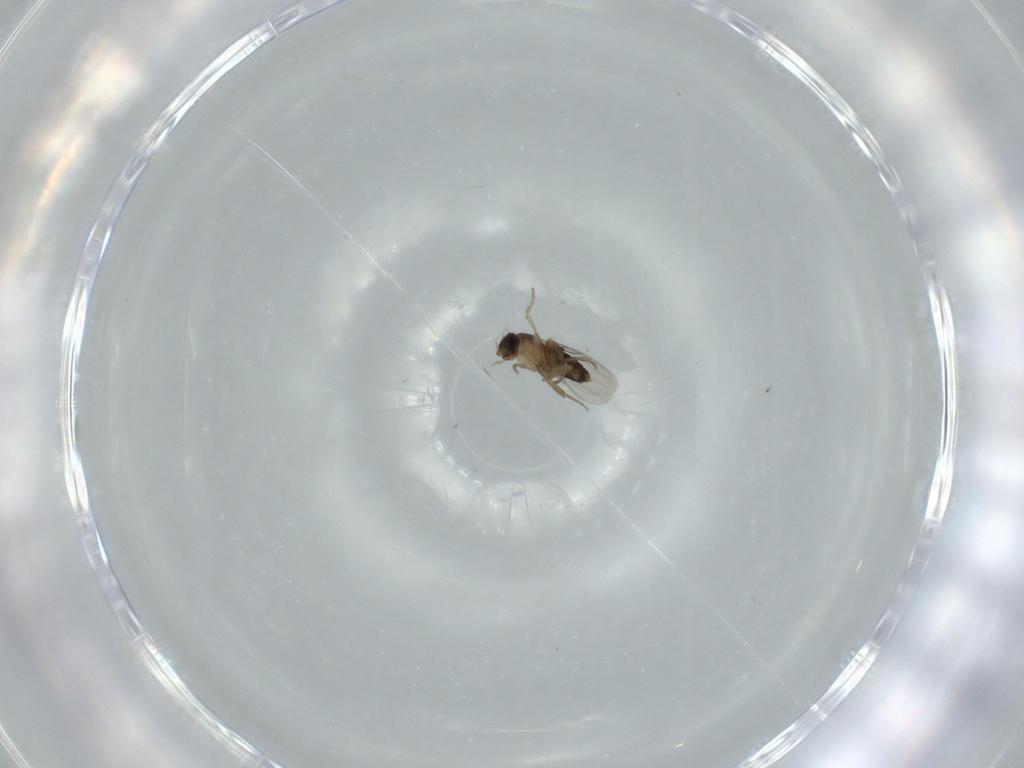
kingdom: Animalia
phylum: Arthropoda
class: Insecta
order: Diptera
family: Phoridae
